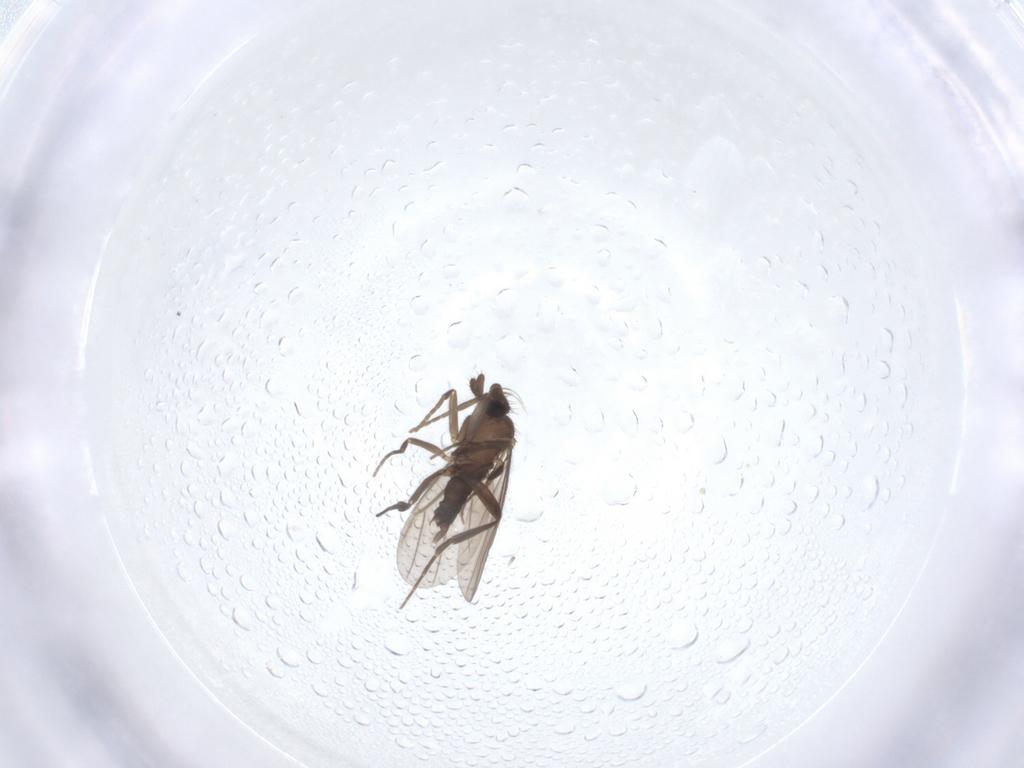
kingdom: Animalia
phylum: Arthropoda
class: Insecta
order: Diptera
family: Phoridae
